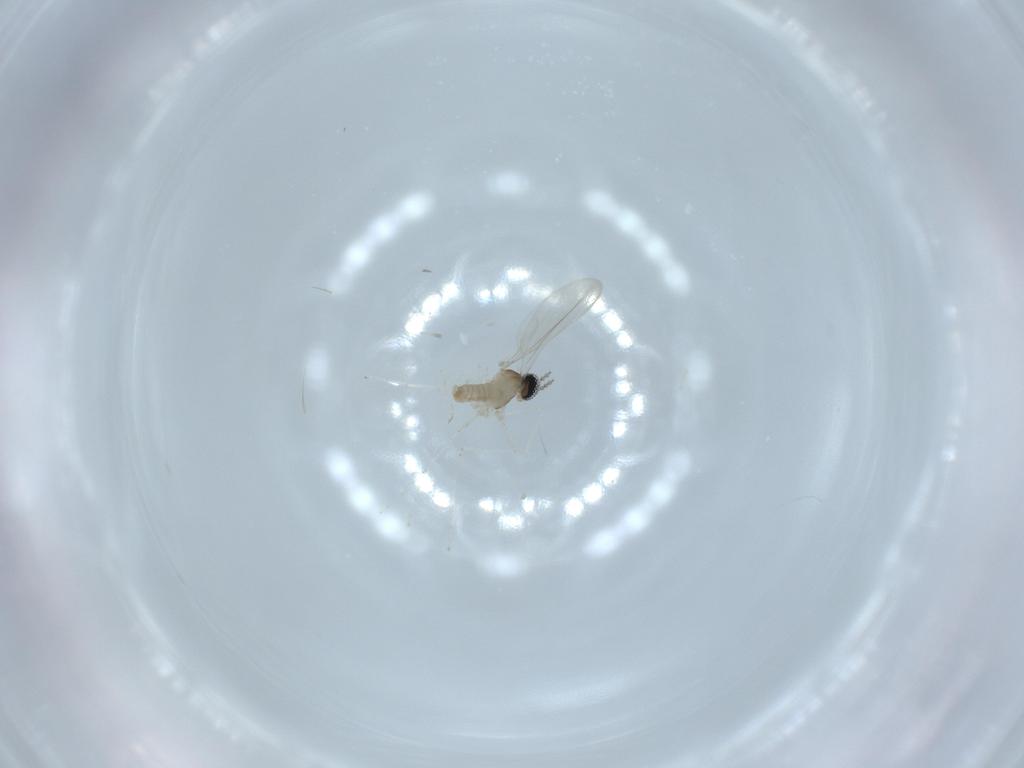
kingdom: Animalia
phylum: Arthropoda
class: Insecta
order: Diptera
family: Cecidomyiidae
